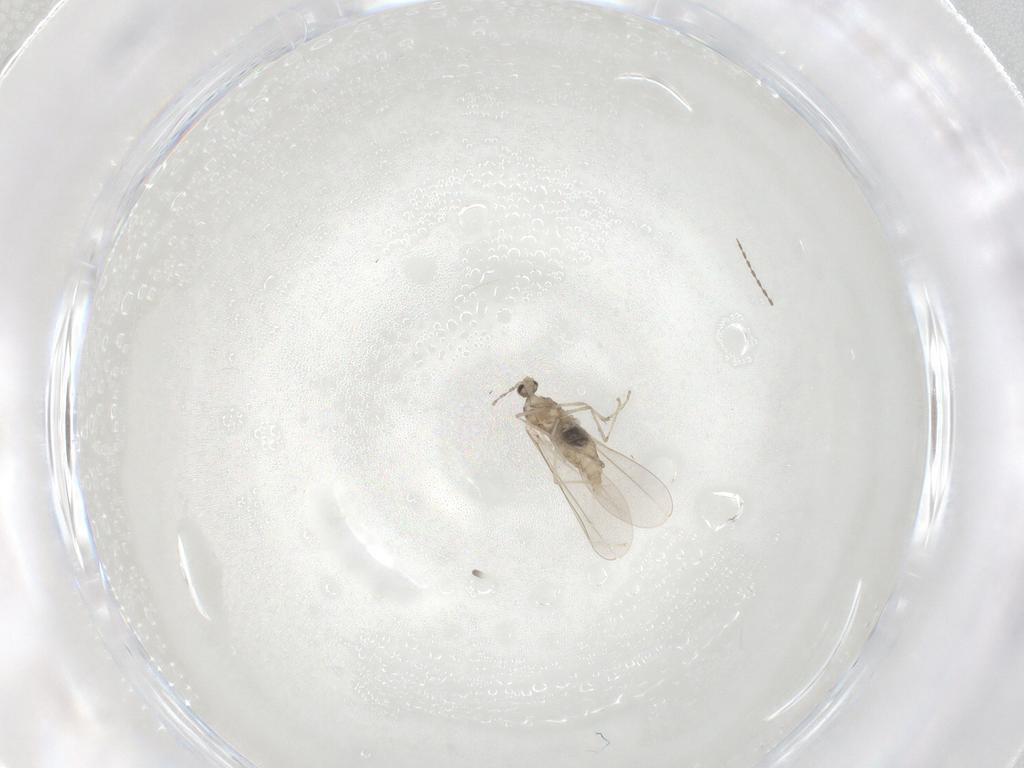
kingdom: Animalia
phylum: Arthropoda
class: Insecta
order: Diptera
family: Cecidomyiidae
